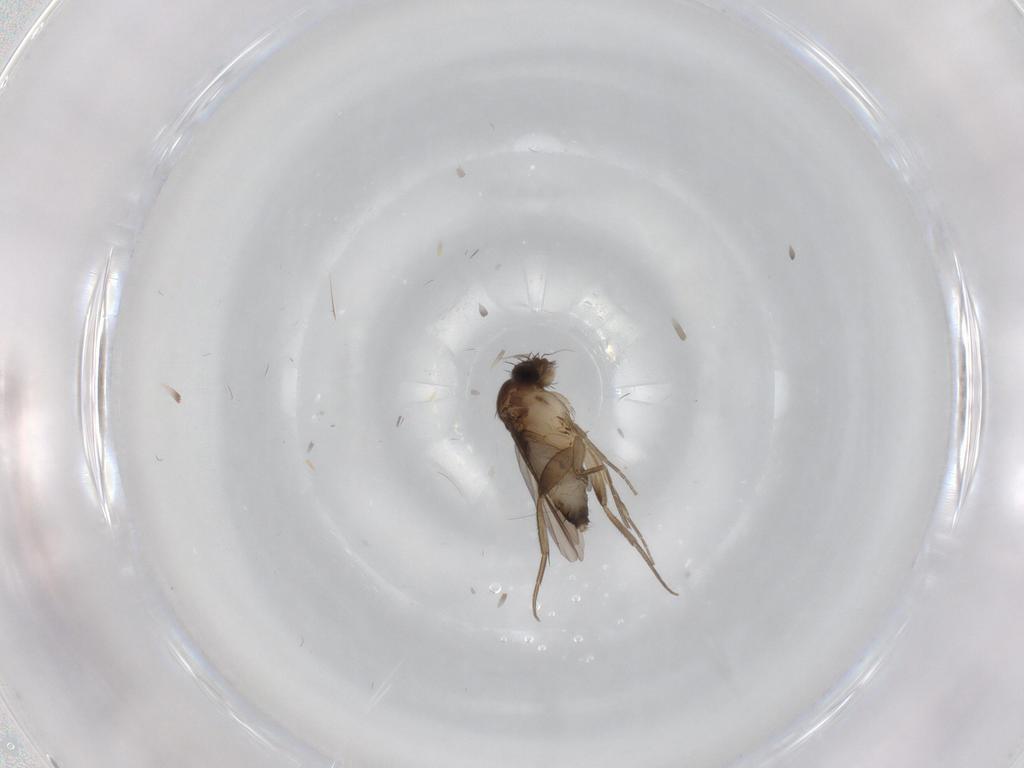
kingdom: Animalia
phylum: Arthropoda
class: Insecta
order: Diptera
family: Phoridae
